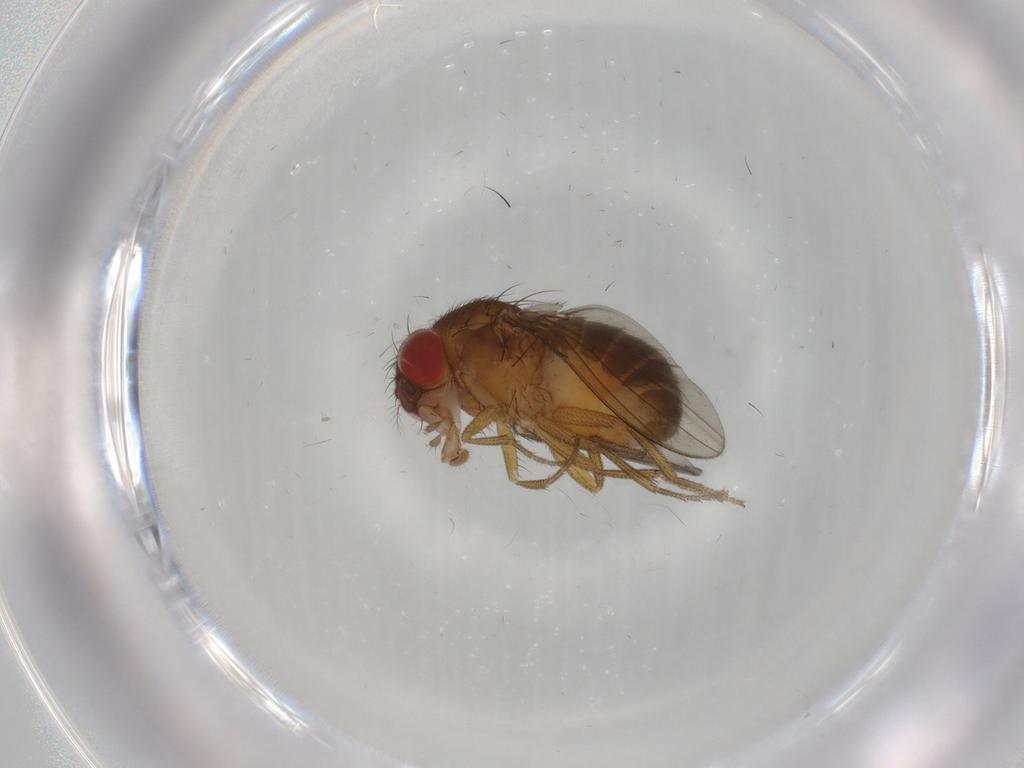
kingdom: Animalia
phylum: Arthropoda
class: Insecta
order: Diptera
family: Drosophilidae
